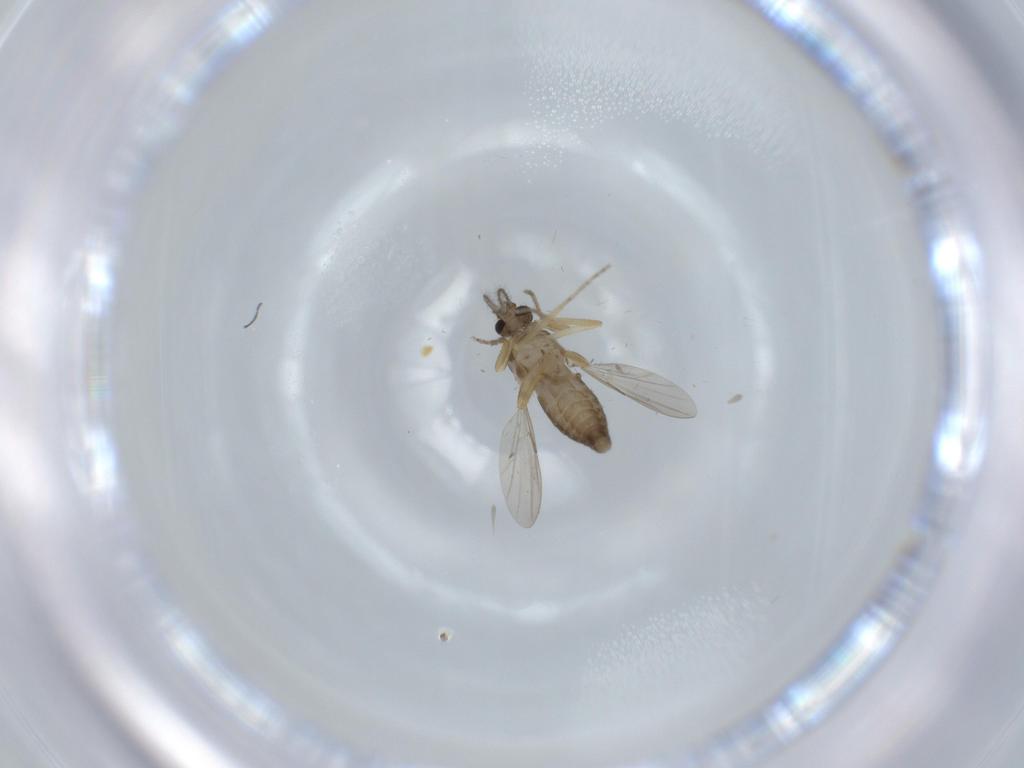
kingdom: Animalia
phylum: Arthropoda
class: Insecta
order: Diptera
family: Ceratopogonidae
